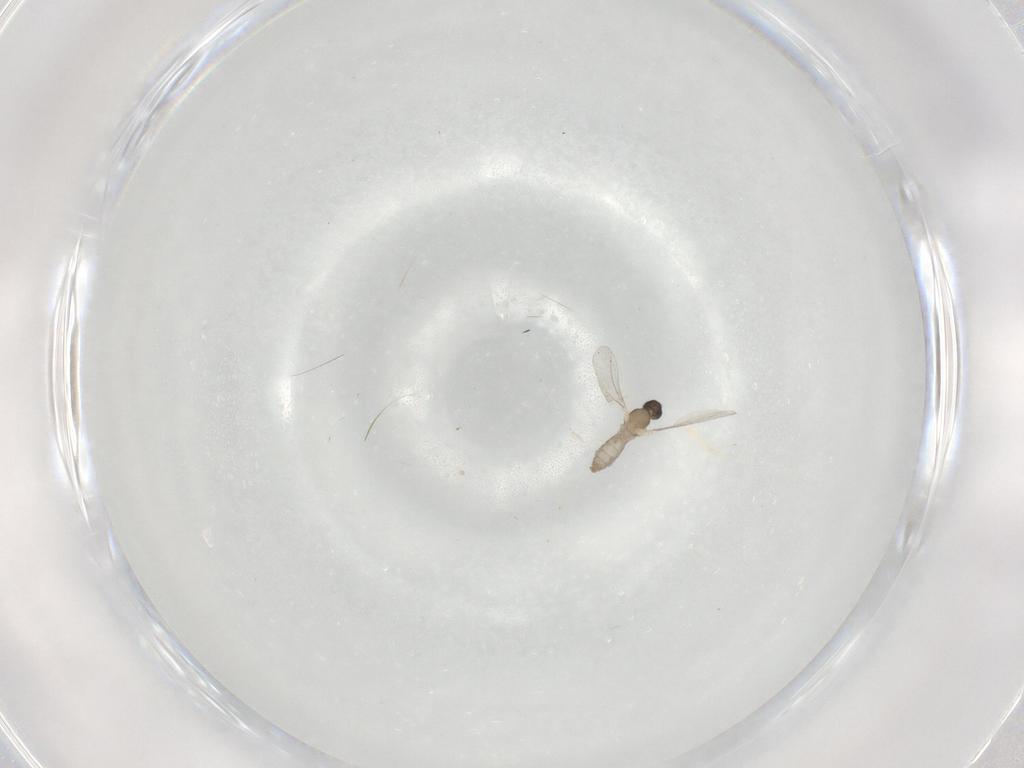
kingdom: Animalia
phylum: Arthropoda
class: Insecta
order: Diptera
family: Cecidomyiidae
